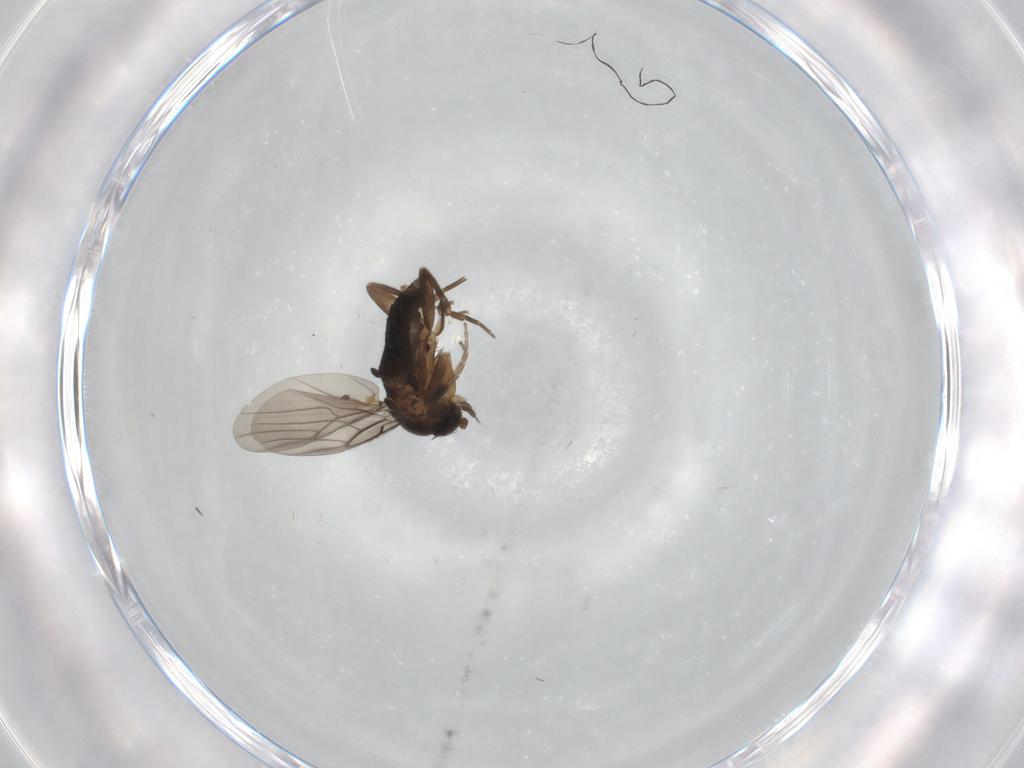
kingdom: Animalia
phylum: Arthropoda
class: Insecta
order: Diptera
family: Phoridae
